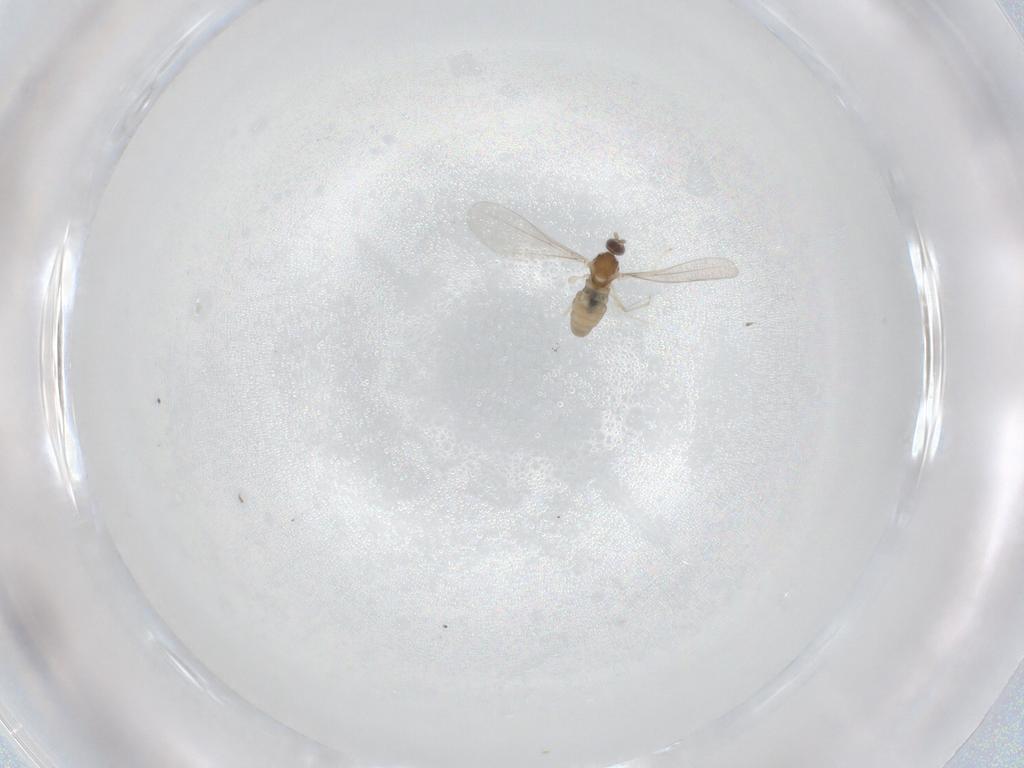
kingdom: Animalia
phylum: Arthropoda
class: Insecta
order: Diptera
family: Cecidomyiidae
